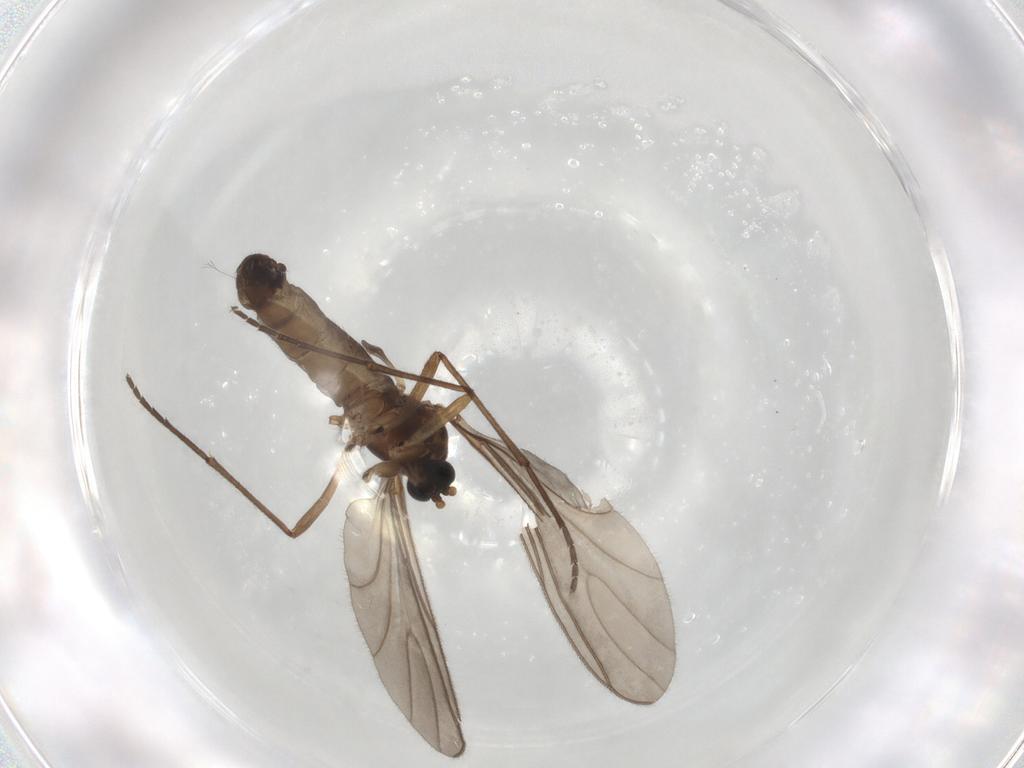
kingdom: Animalia
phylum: Arthropoda
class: Insecta
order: Diptera
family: Sciaridae
